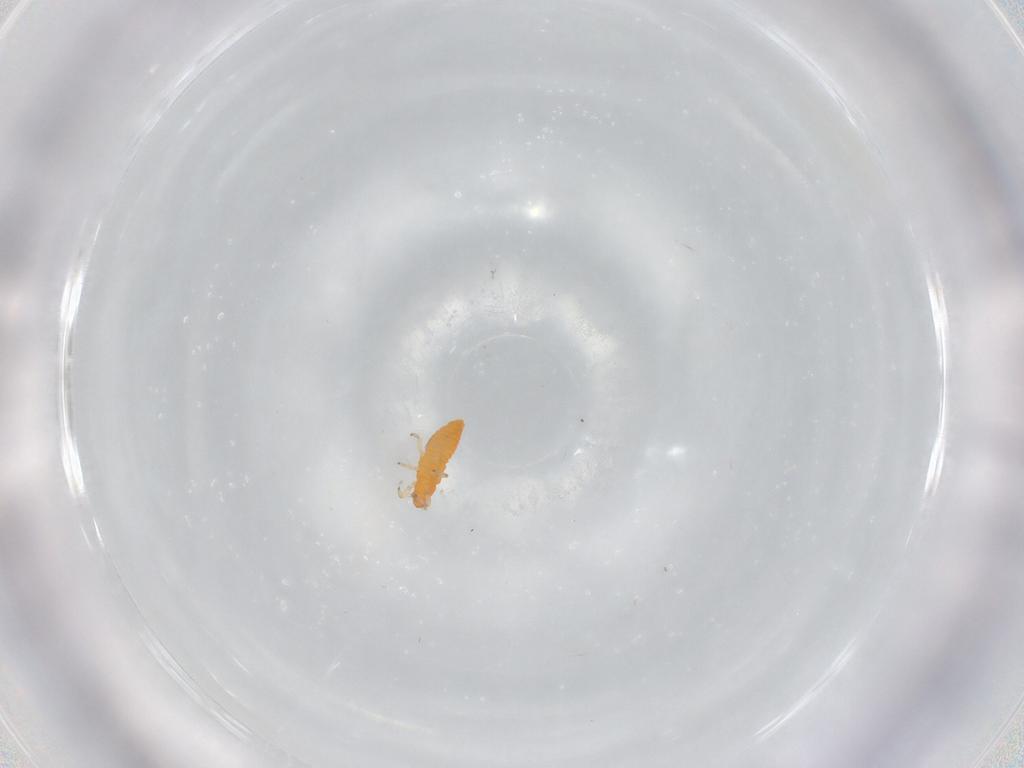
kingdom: Animalia
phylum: Arthropoda
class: Insecta
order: Thysanoptera
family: Aeolothripidae
